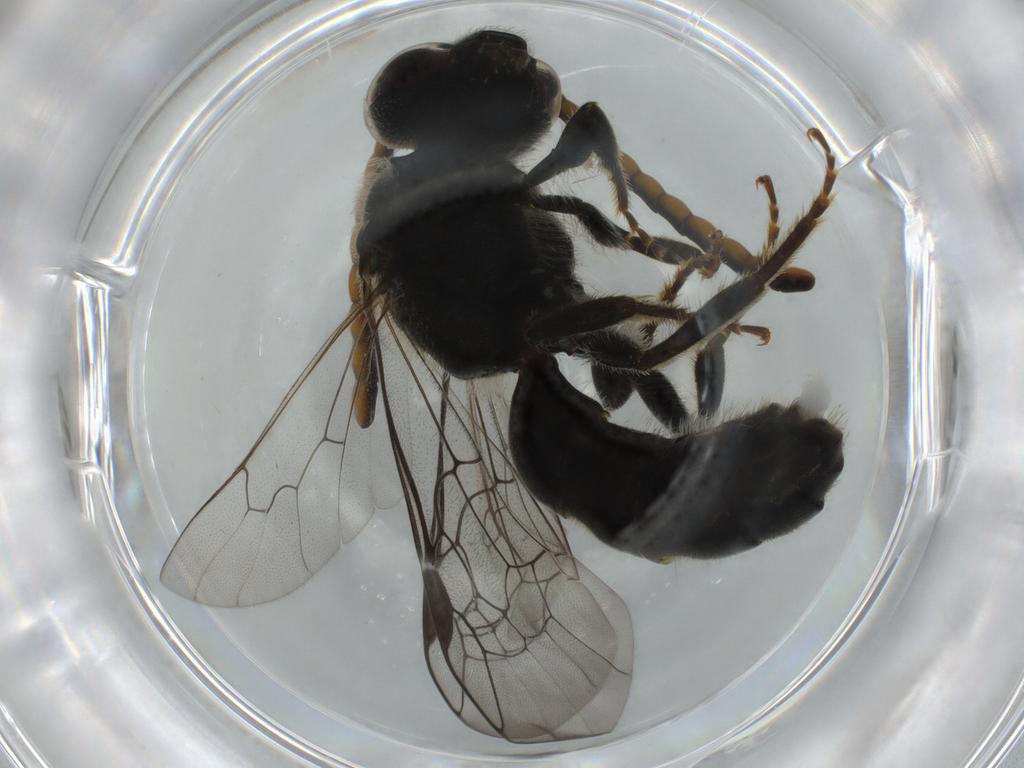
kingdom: Animalia
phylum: Arthropoda
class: Insecta
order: Hymenoptera
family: Halictidae
